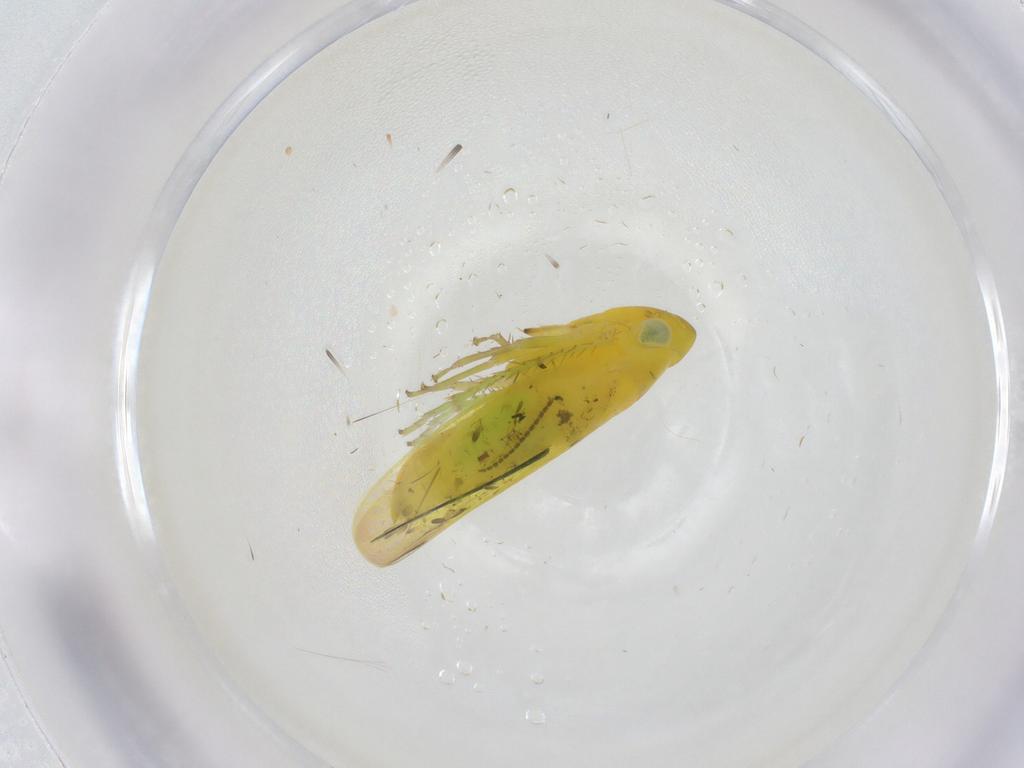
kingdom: Animalia
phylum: Arthropoda
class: Insecta
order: Hemiptera
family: Cicadellidae
